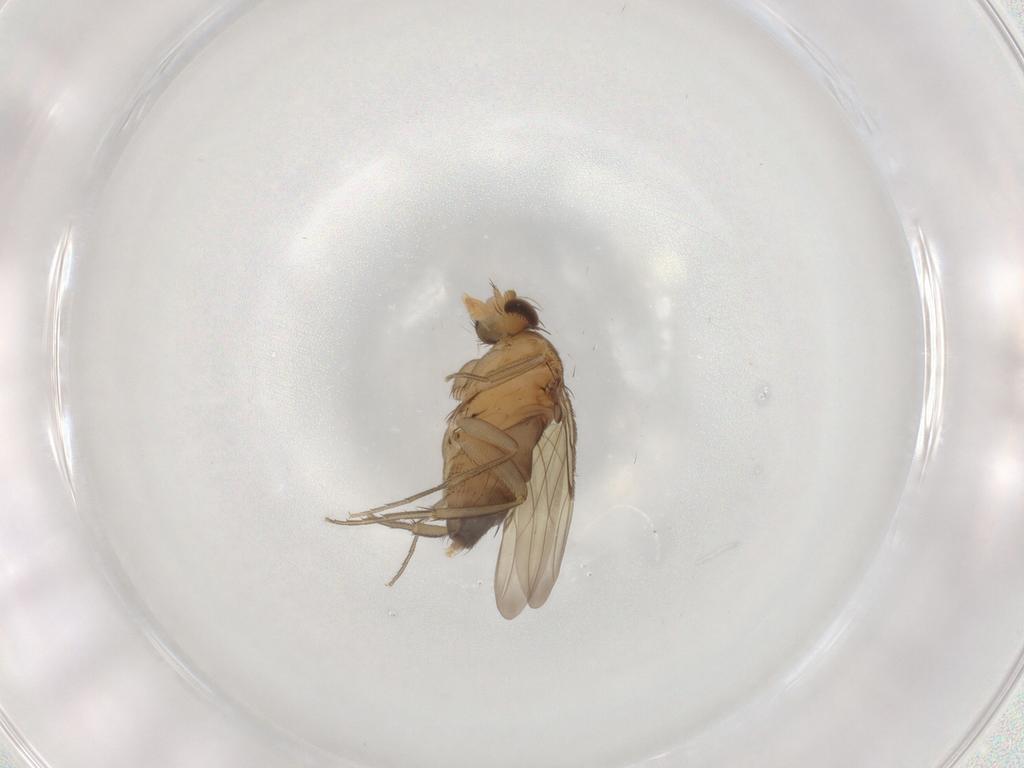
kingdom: Animalia
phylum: Arthropoda
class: Insecta
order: Diptera
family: Phoridae
